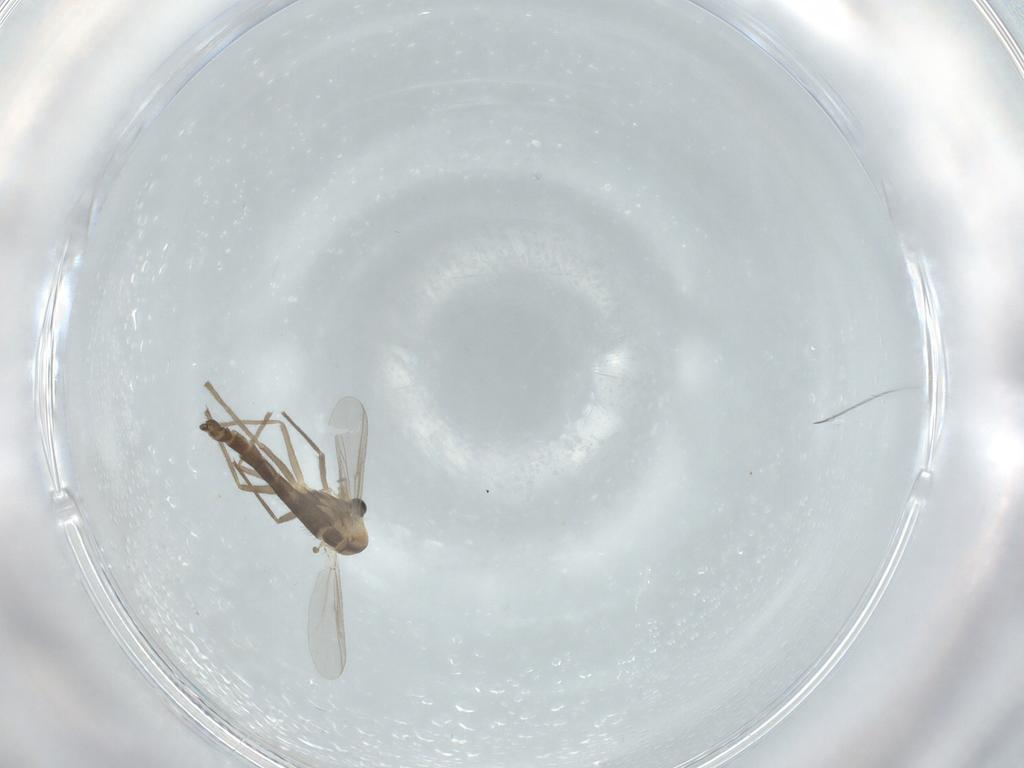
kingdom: Animalia
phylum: Arthropoda
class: Insecta
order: Diptera
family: Chironomidae
